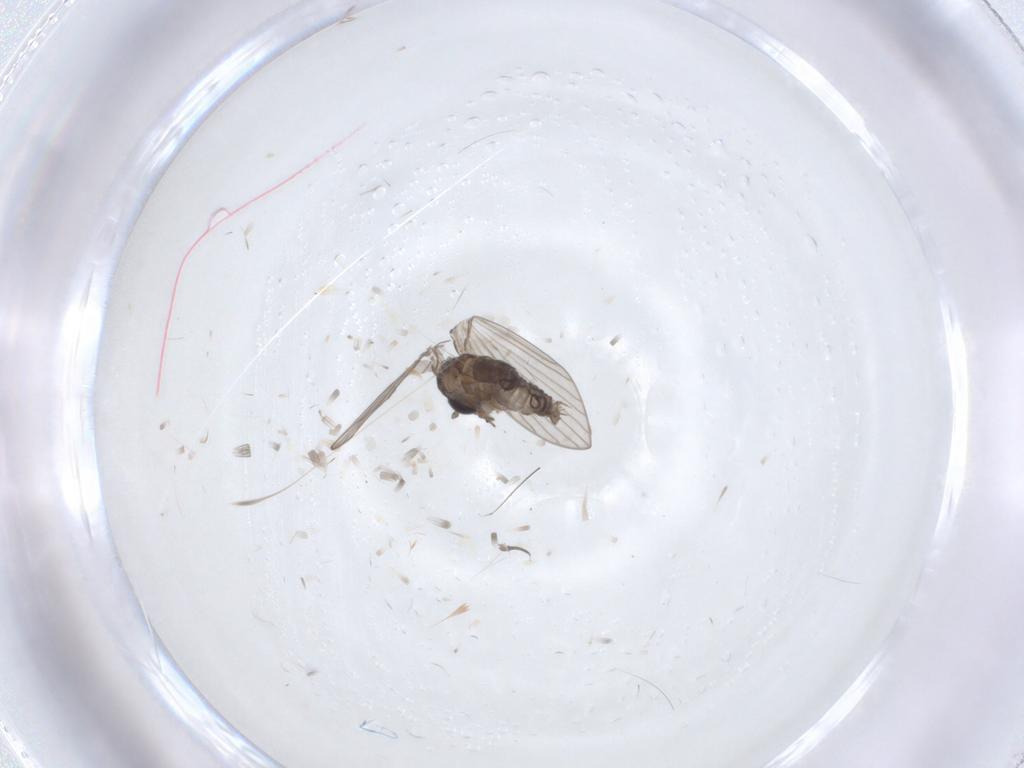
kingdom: Animalia
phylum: Arthropoda
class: Insecta
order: Diptera
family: Psychodidae
